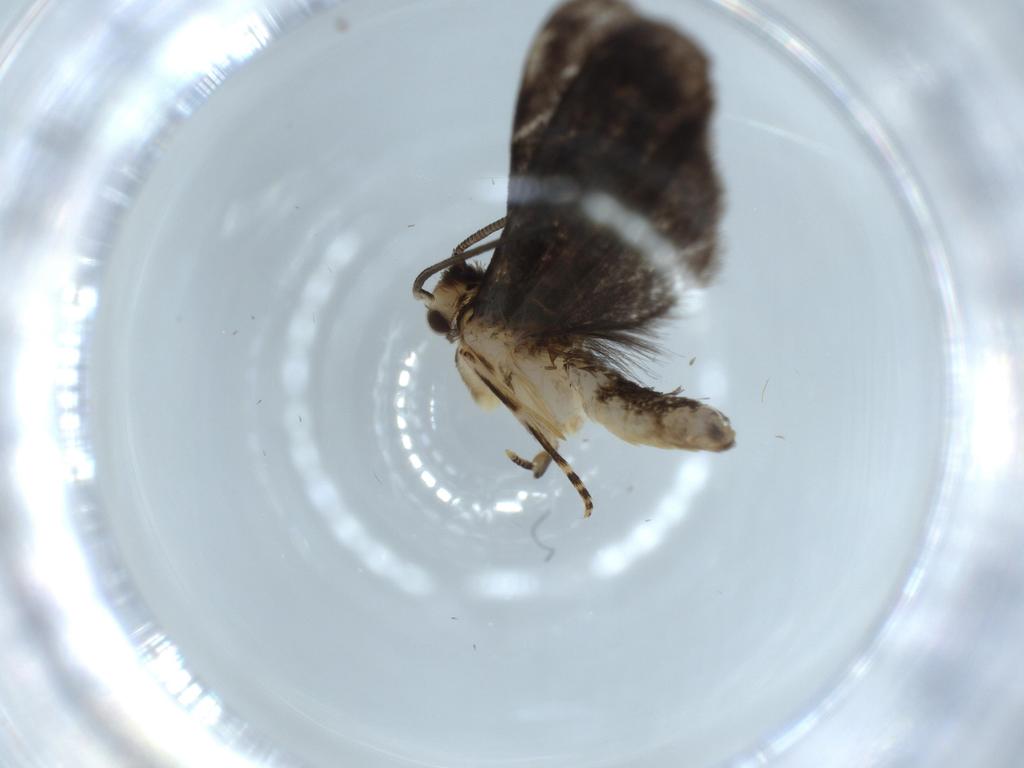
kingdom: Animalia
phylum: Arthropoda
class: Insecta
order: Lepidoptera
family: Dryadaulidae
